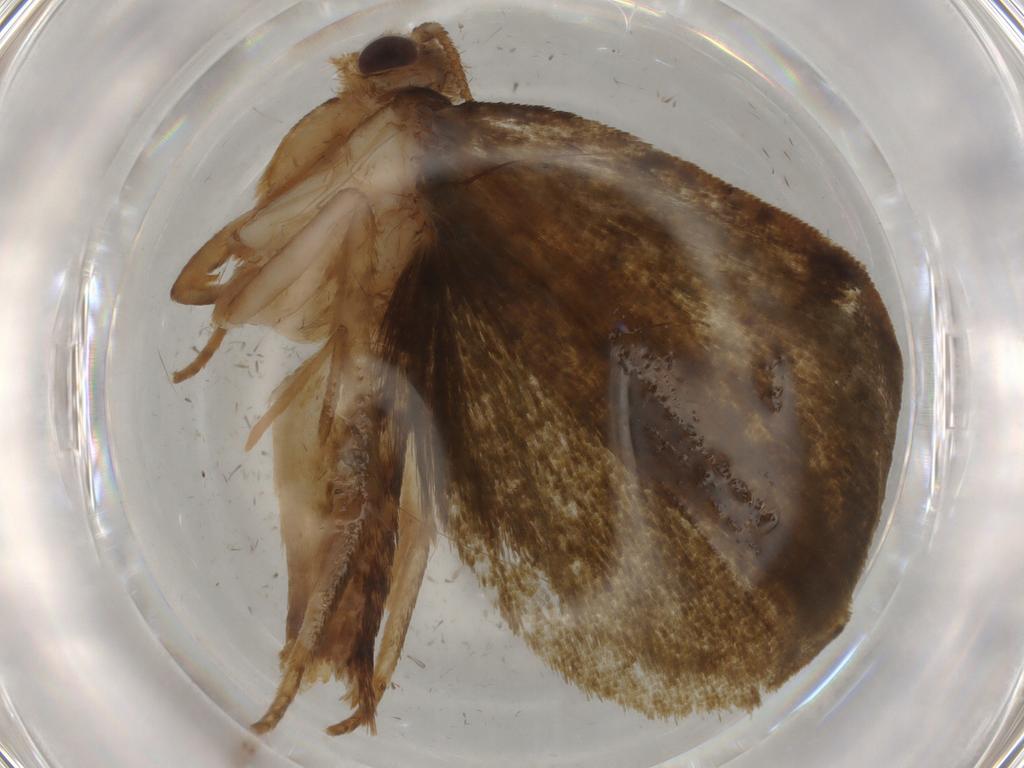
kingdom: Animalia
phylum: Arthropoda
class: Insecta
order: Lepidoptera
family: Geometridae
